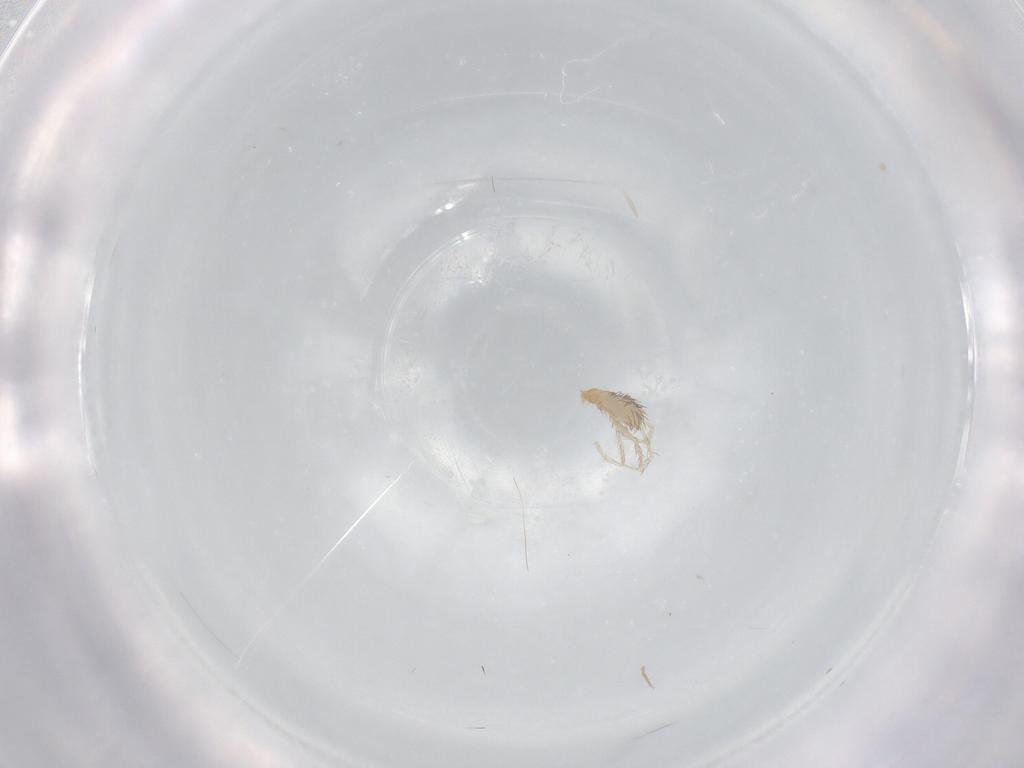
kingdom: Animalia
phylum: Arthropoda
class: Arachnida
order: Trombidiformes
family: Erythraeidae
